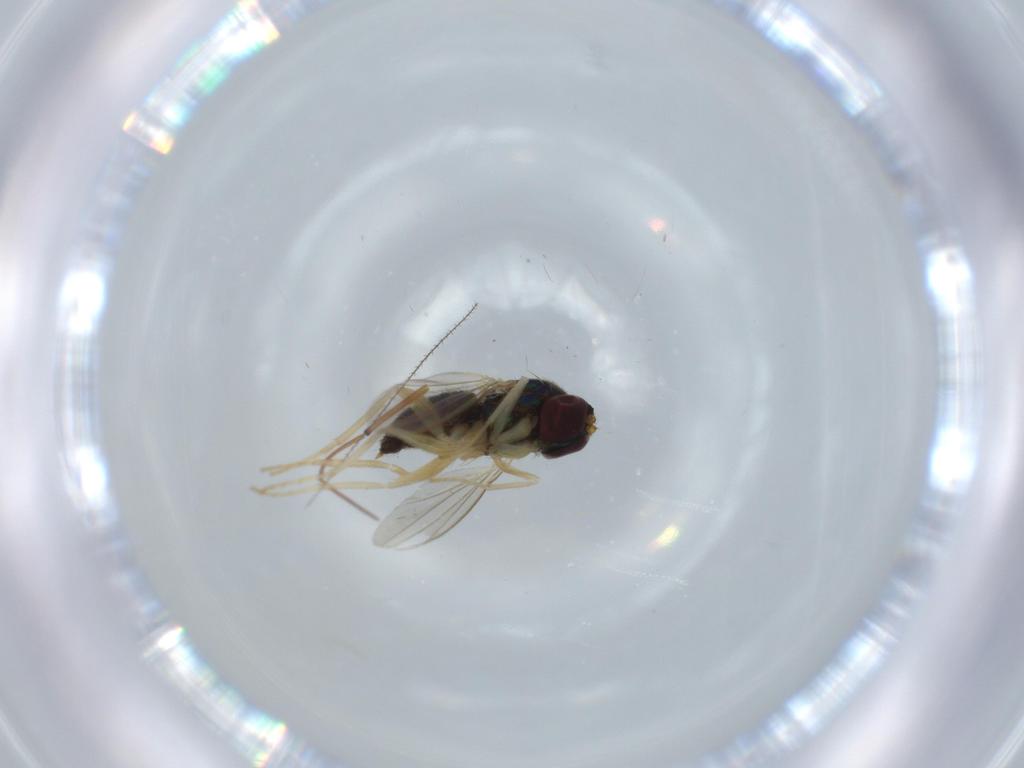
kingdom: Animalia
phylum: Arthropoda
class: Insecta
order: Diptera
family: Dolichopodidae
